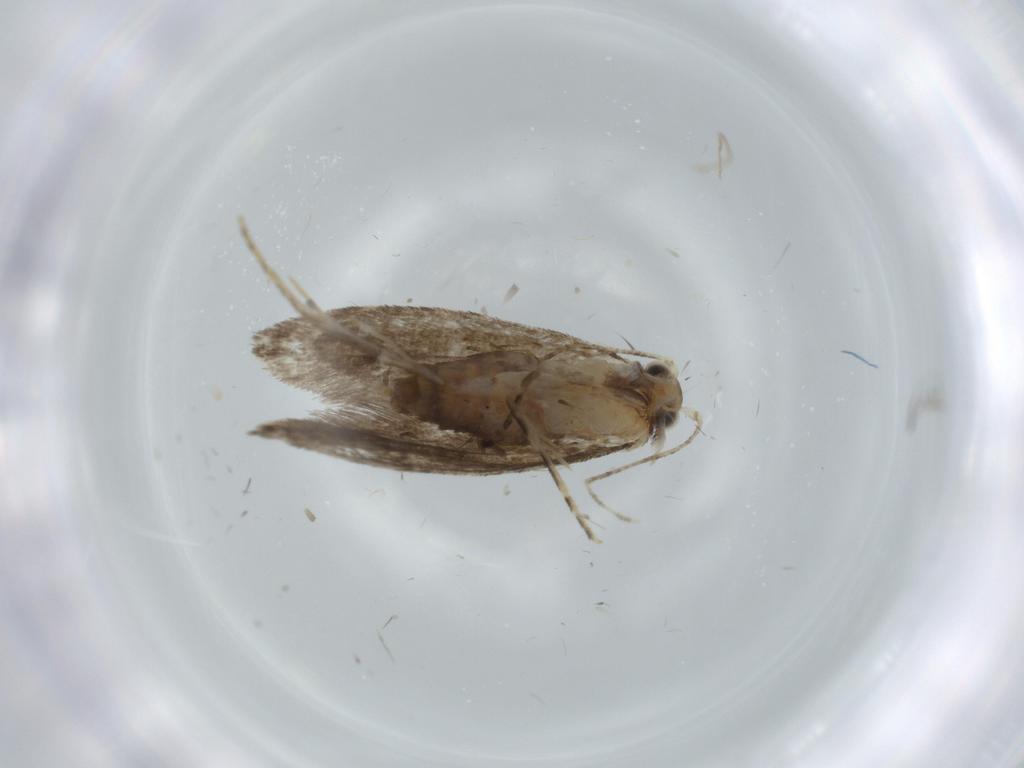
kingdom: Animalia
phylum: Arthropoda
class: Insecta
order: Lepidoptera
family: Tineidae
